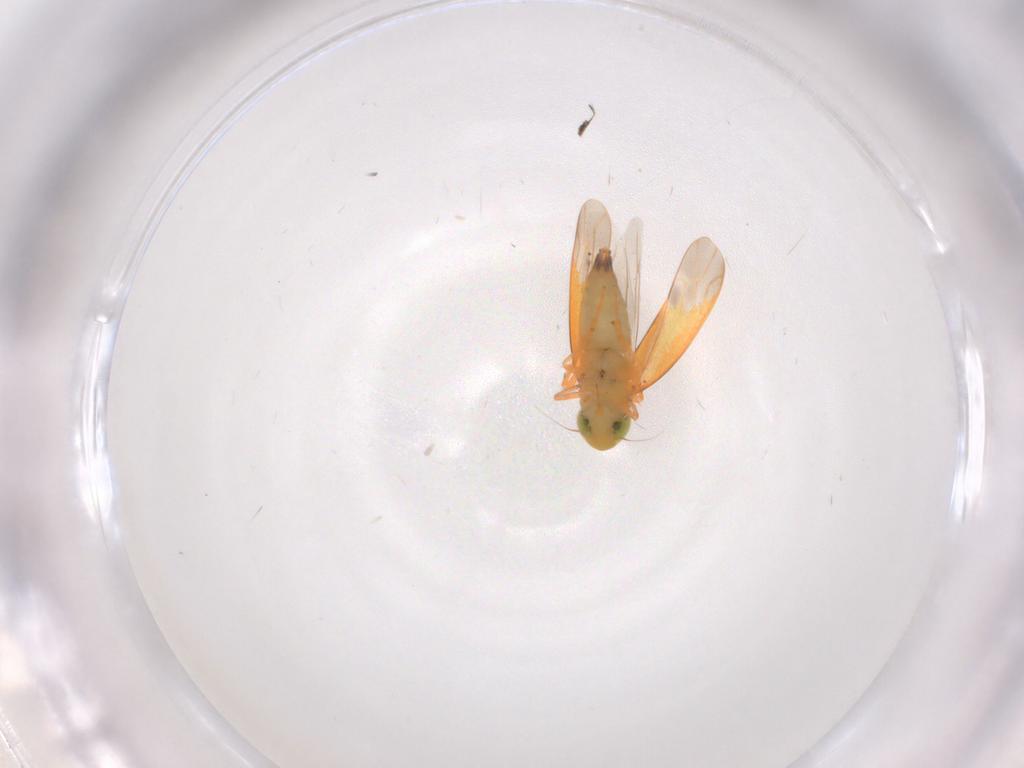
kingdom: Animalia
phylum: Arthropoda
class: Insecta
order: Hemiptera
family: Cicadellidae
